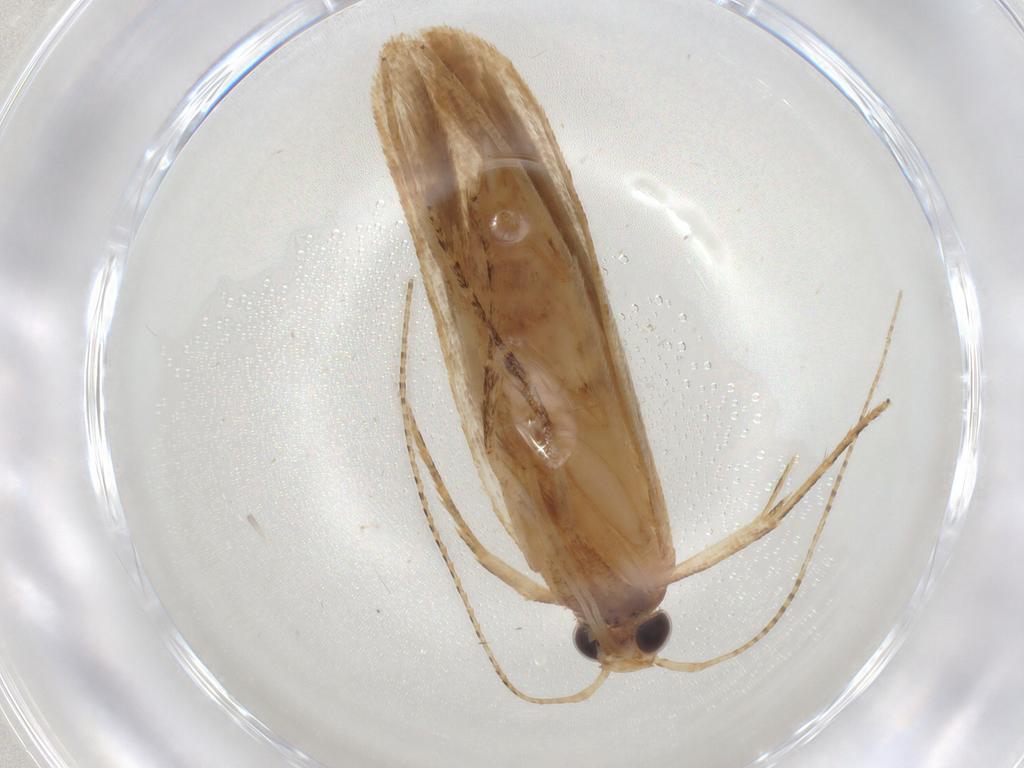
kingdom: Animalia
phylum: Arthropoda
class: Insecta
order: Lepidoptera
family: Gelechiidae
